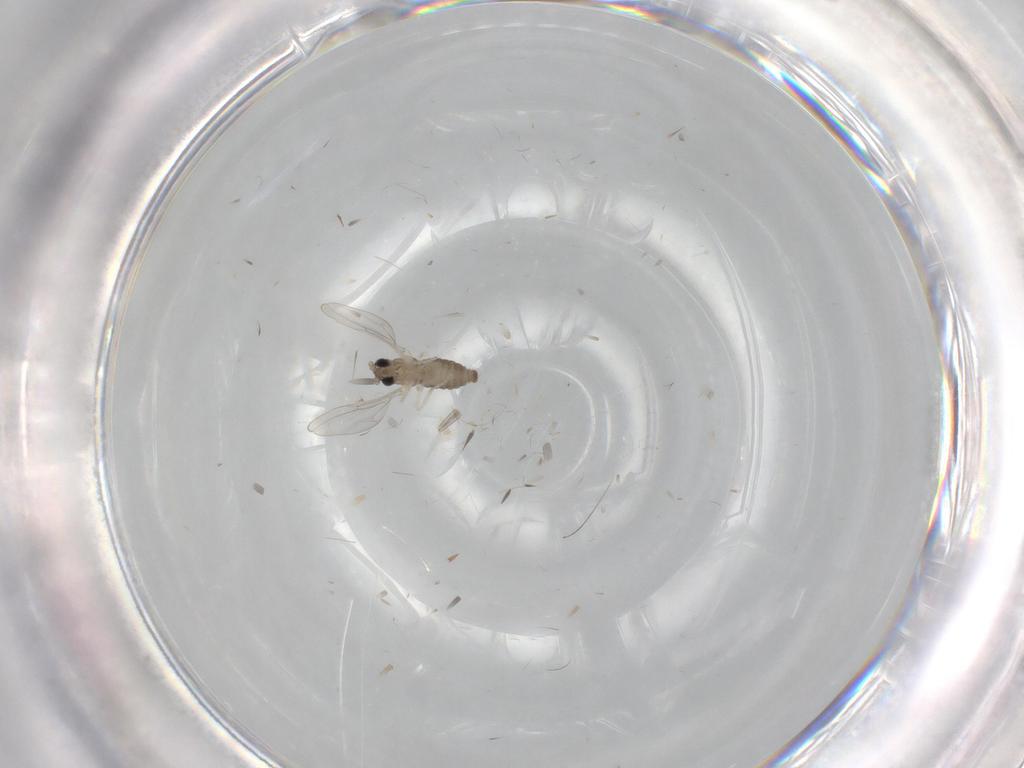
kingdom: Animalia
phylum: Arthropoda
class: Insecta
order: Diptera
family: Cecidomyiidae
